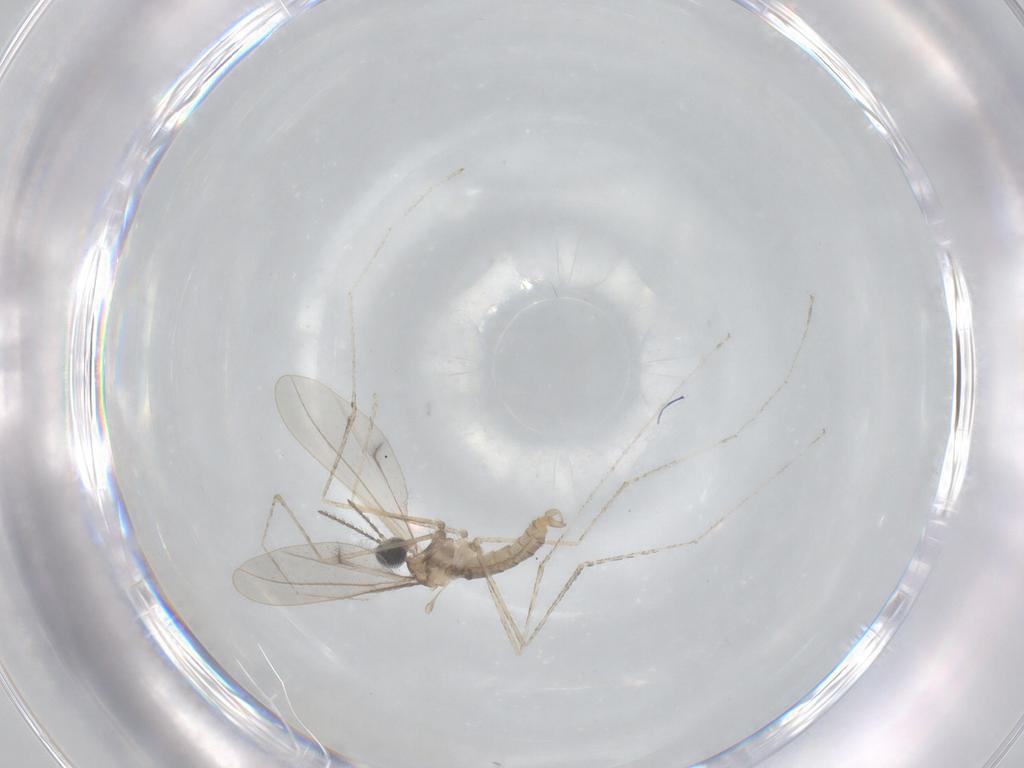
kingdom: Animalia
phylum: Arthropoda
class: Insecta
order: Diptera
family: Cecidomyiidae
